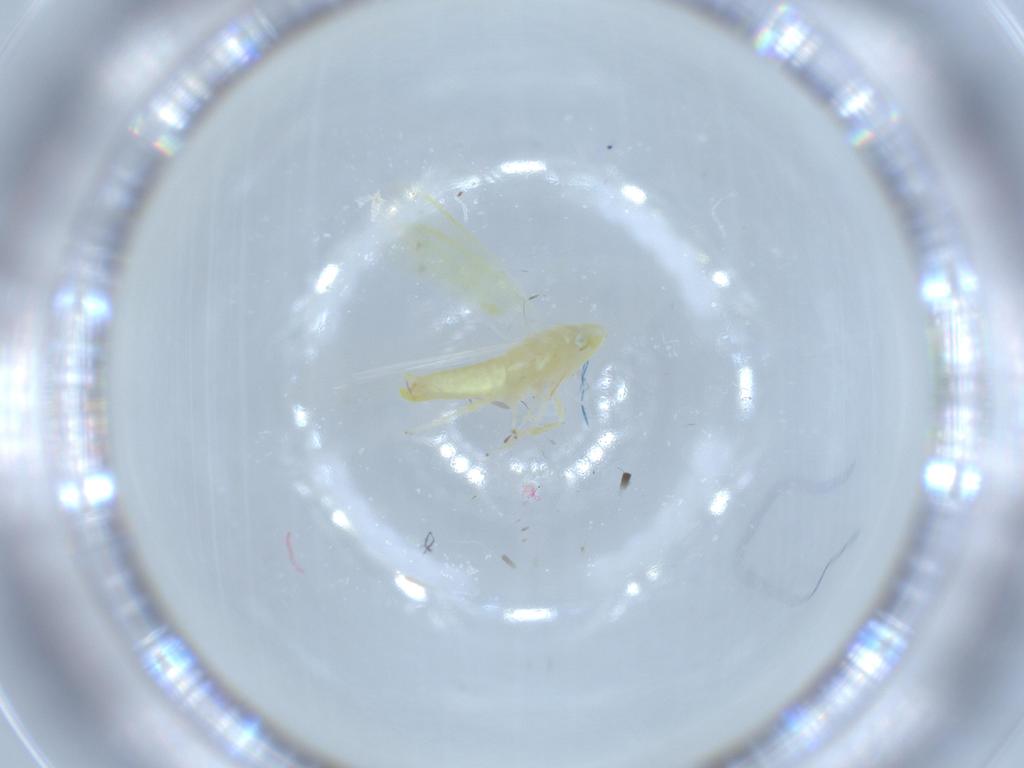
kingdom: Animalia
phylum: Arthropoda
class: Insecta
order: Hemiptera
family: Cicadellidae
